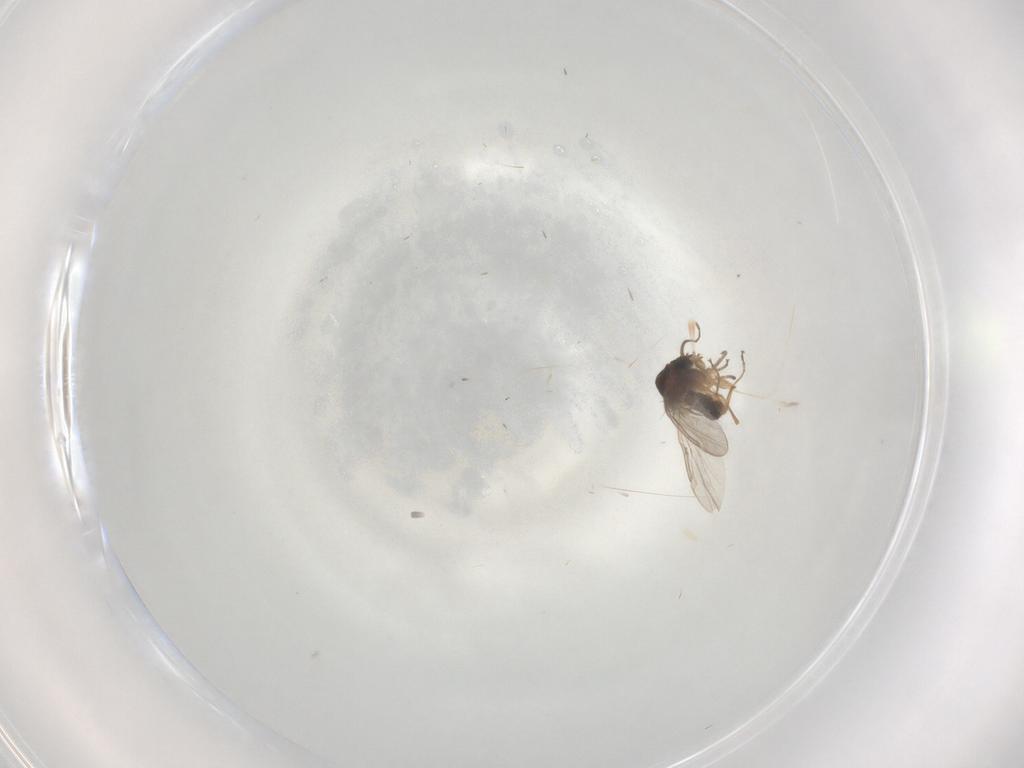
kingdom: Animalia
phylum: Arthropoda
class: Insecta
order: Diptera
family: Ceratopogonidae
